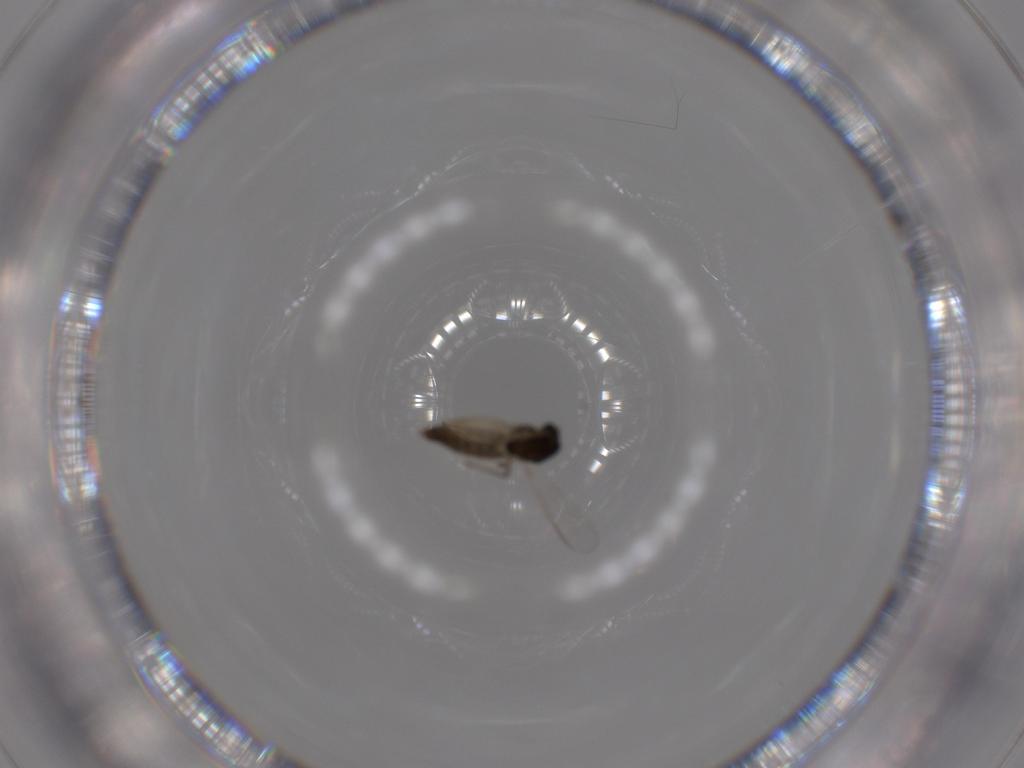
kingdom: Animalia
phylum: Arthropoda
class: Insecta
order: Diptera
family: Chironomidae
